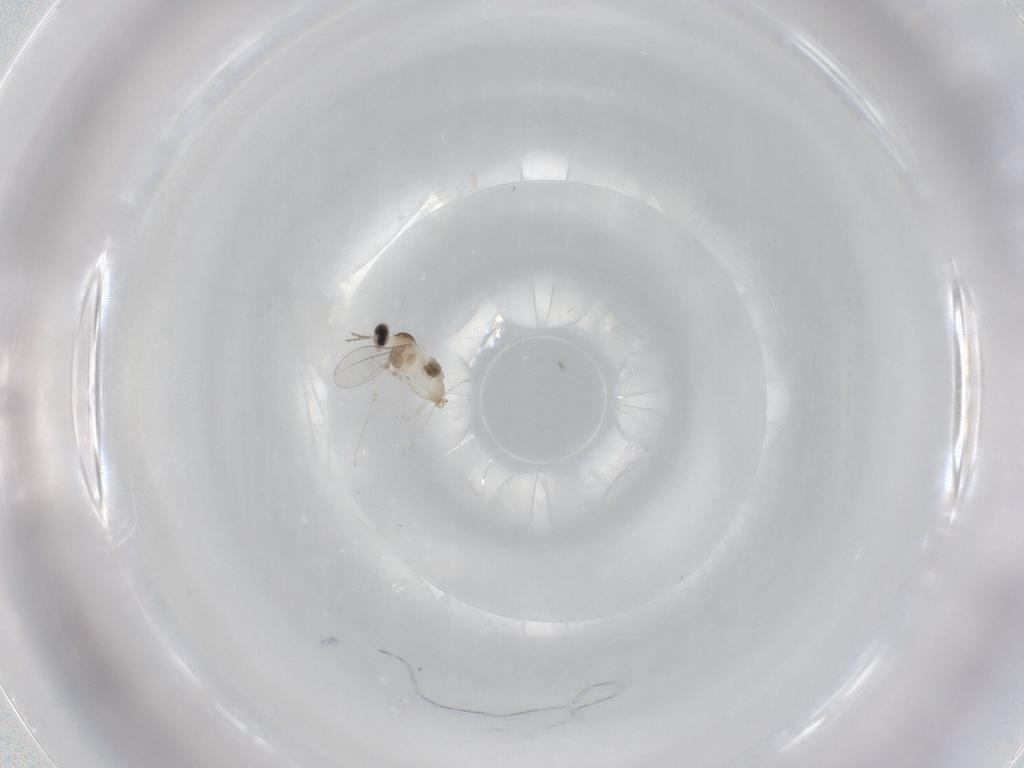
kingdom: Animalia
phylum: Arthropoda
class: Insecta
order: Diptera
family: Cecidomyiidae
